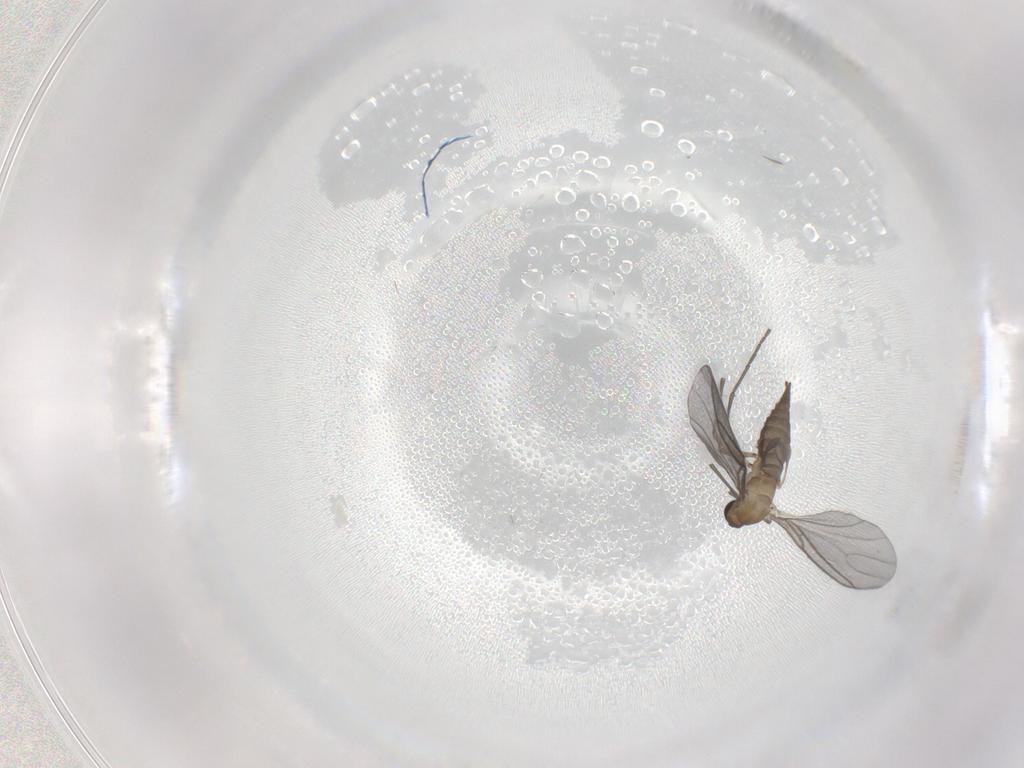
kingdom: Animalia
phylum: Arthropoda
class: Insecta
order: Diptera
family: Sciaridae
